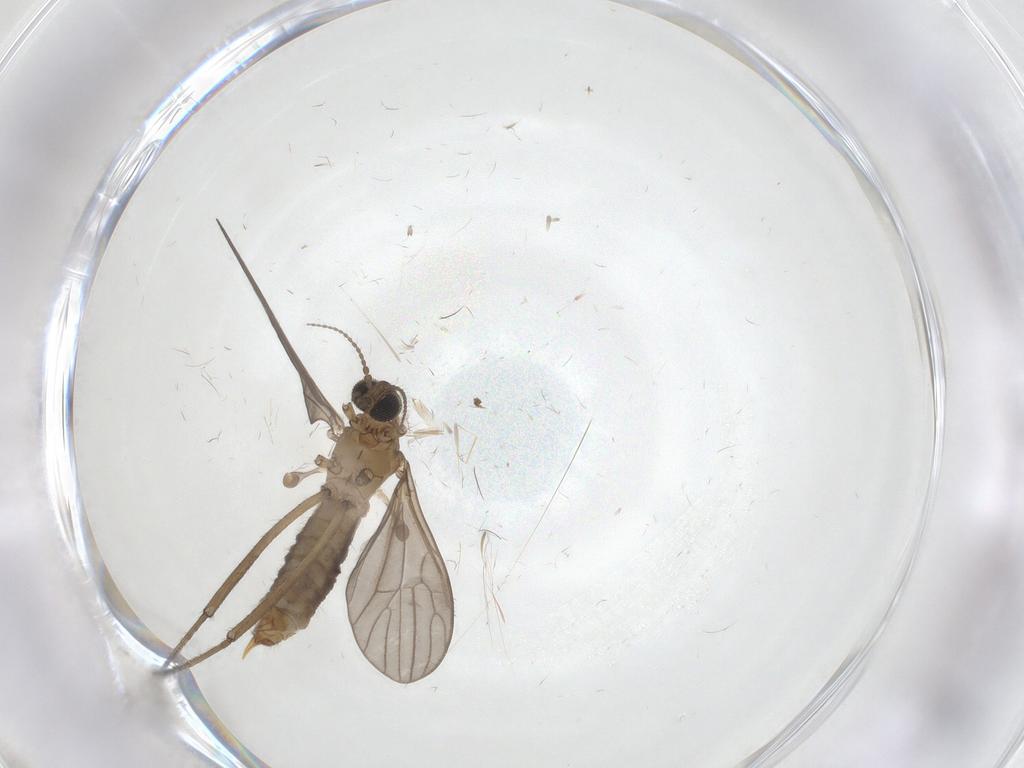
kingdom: Animalia
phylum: Arthropoda
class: Insecta
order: Diptera
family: Limoniidae
